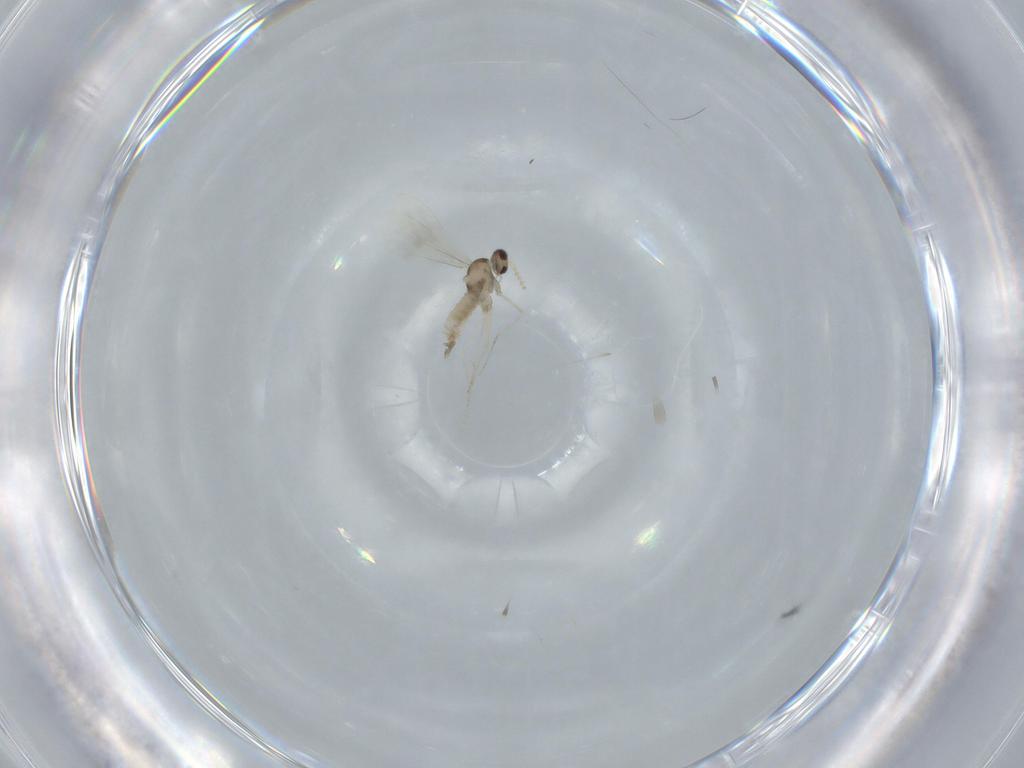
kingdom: Animalia
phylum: Arthropoda
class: Insecta
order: Diptera
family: Cecidomyiidae
